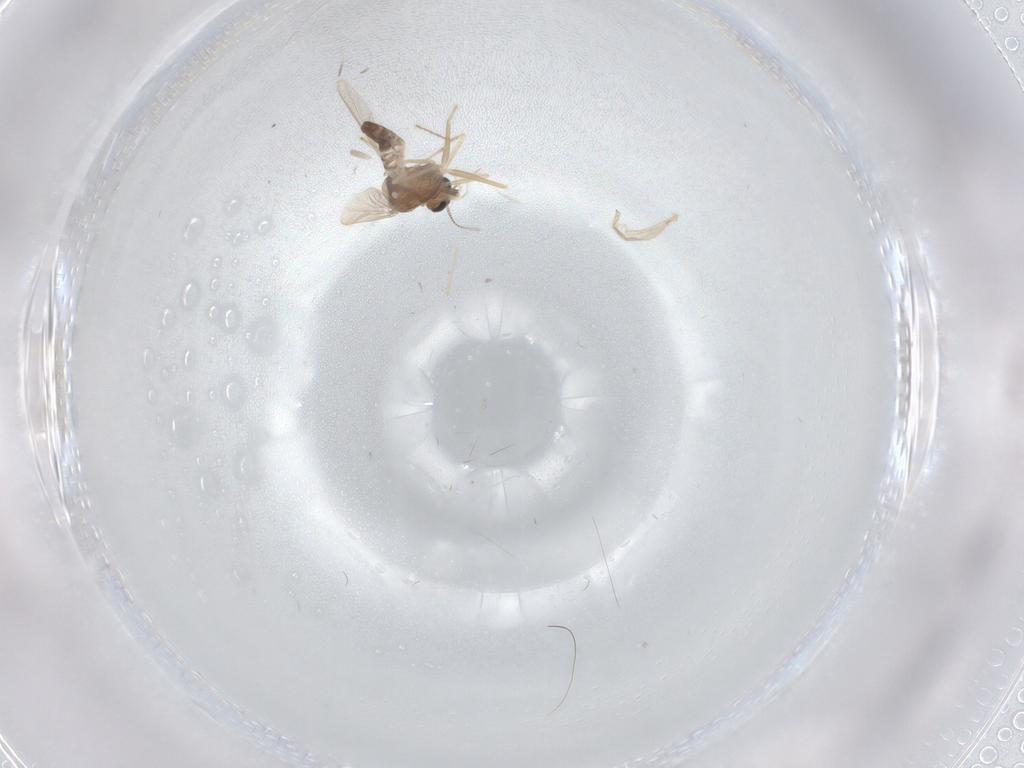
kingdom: Animalia
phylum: Arthropoda
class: Insecta
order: Diptera
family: Chironomidae
